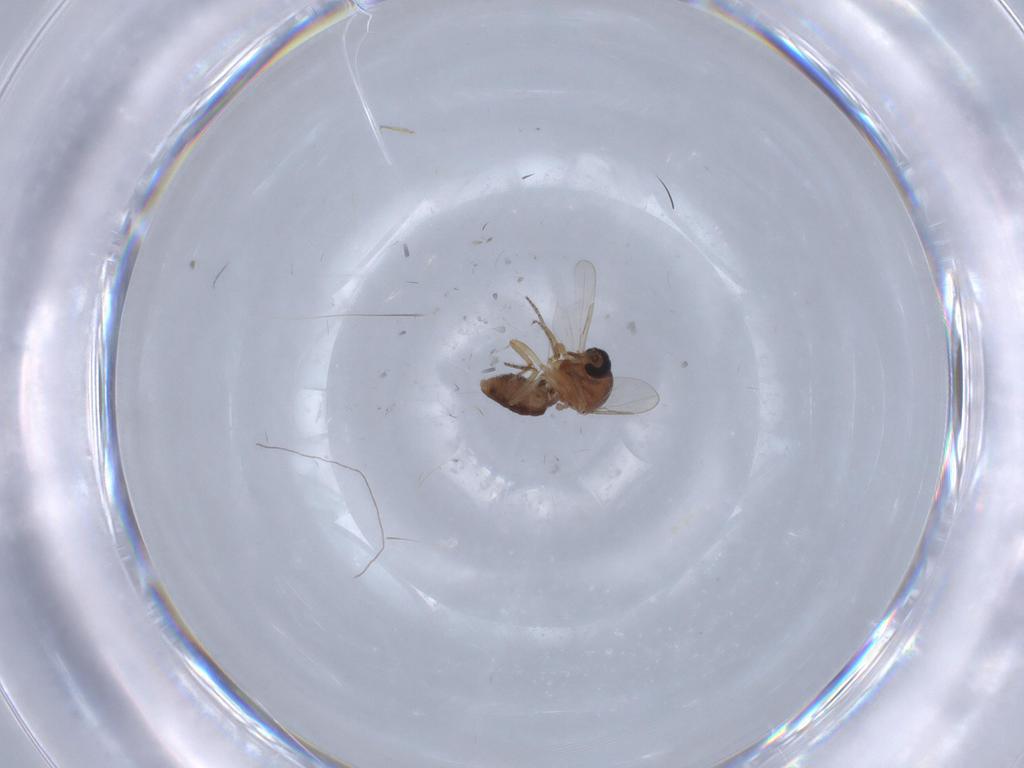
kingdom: Animalia
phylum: Arthropoda
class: Insecta
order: Diptera
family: Ceratopogonidae
